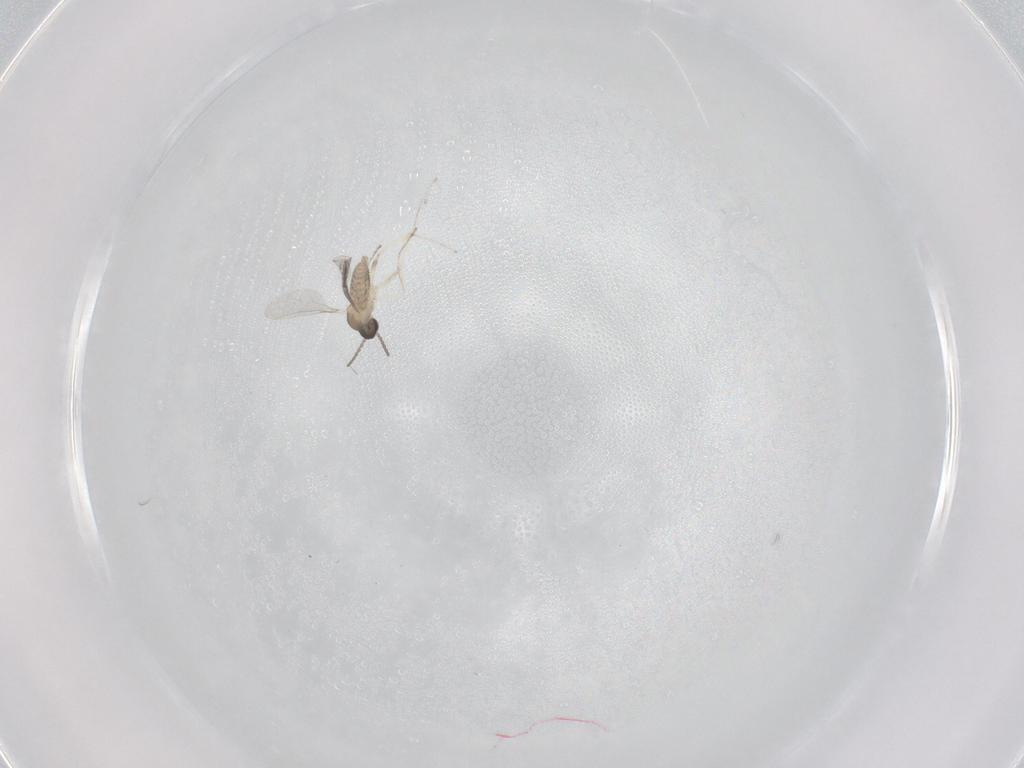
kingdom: Animalia
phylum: Arthropoda
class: Insecta
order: Diptera
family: Cecidomyiidae
